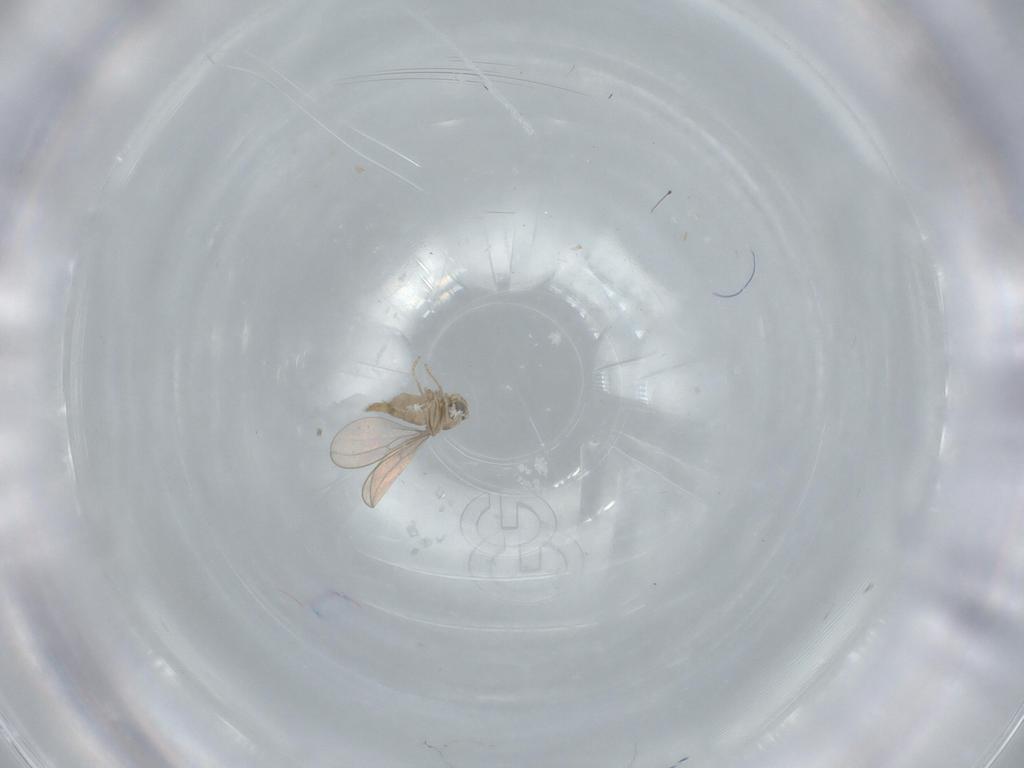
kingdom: Animalia
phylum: Arthropoda
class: Insecta
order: Diptera
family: Cecidomyiidae
